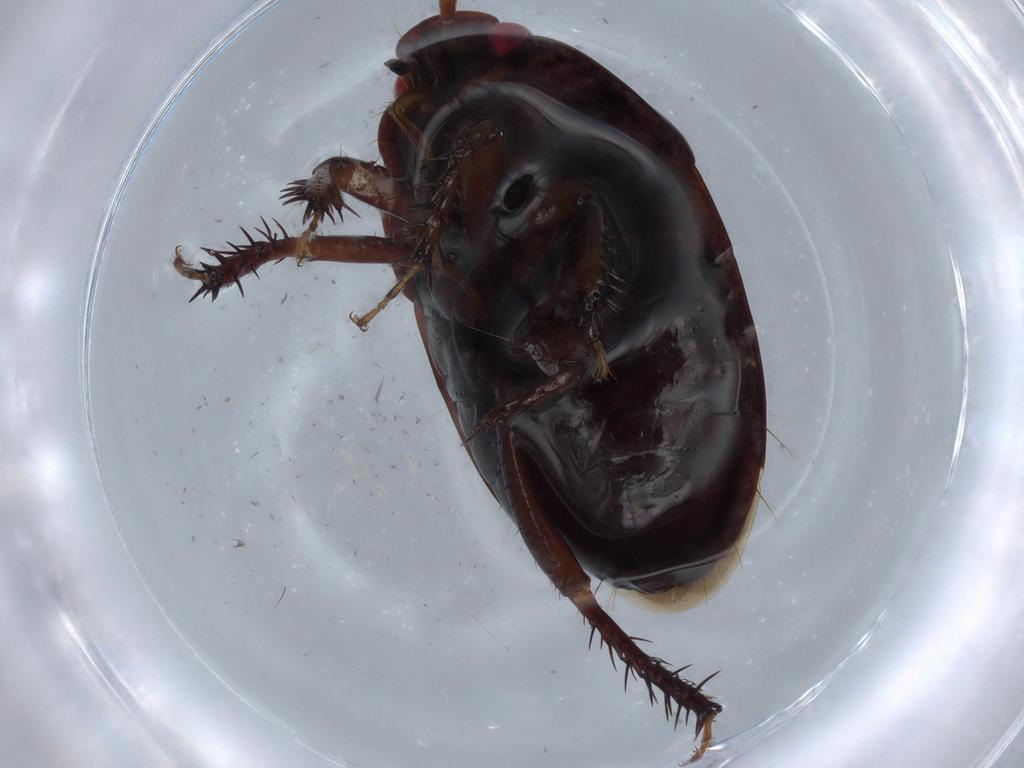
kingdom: Animalia
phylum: Arthropoda
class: Insecta
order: Hemiptera
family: Cydnidae
